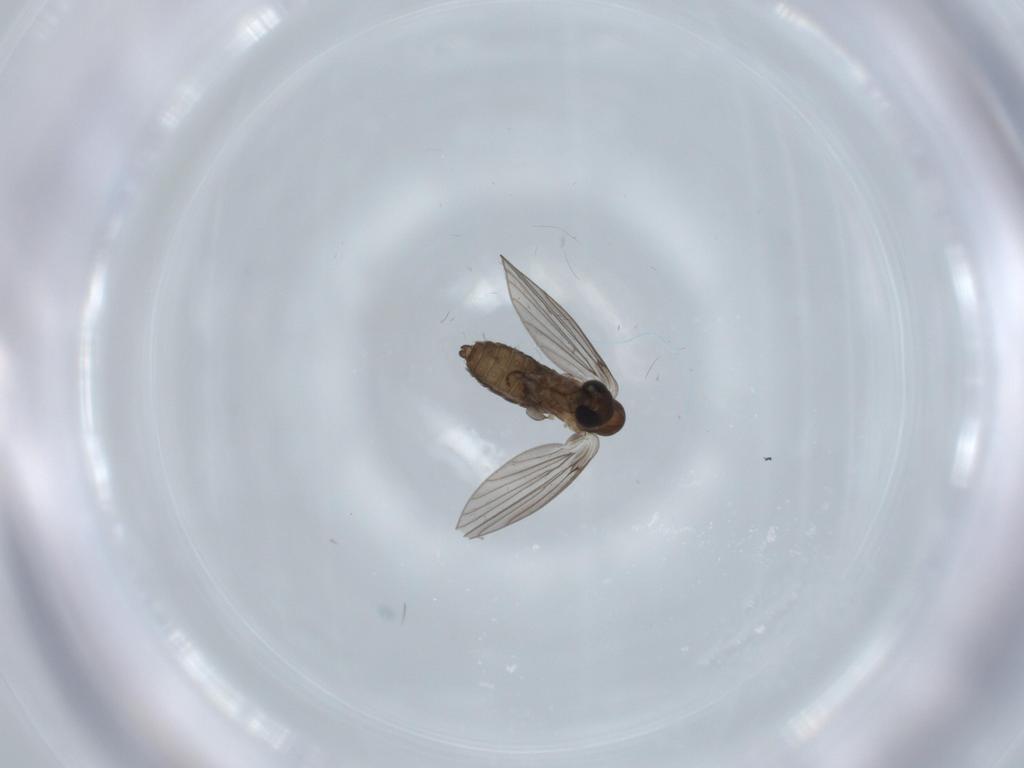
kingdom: Animalia
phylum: Arthropoda
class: Insecta
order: Diptera
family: Psychodidae
